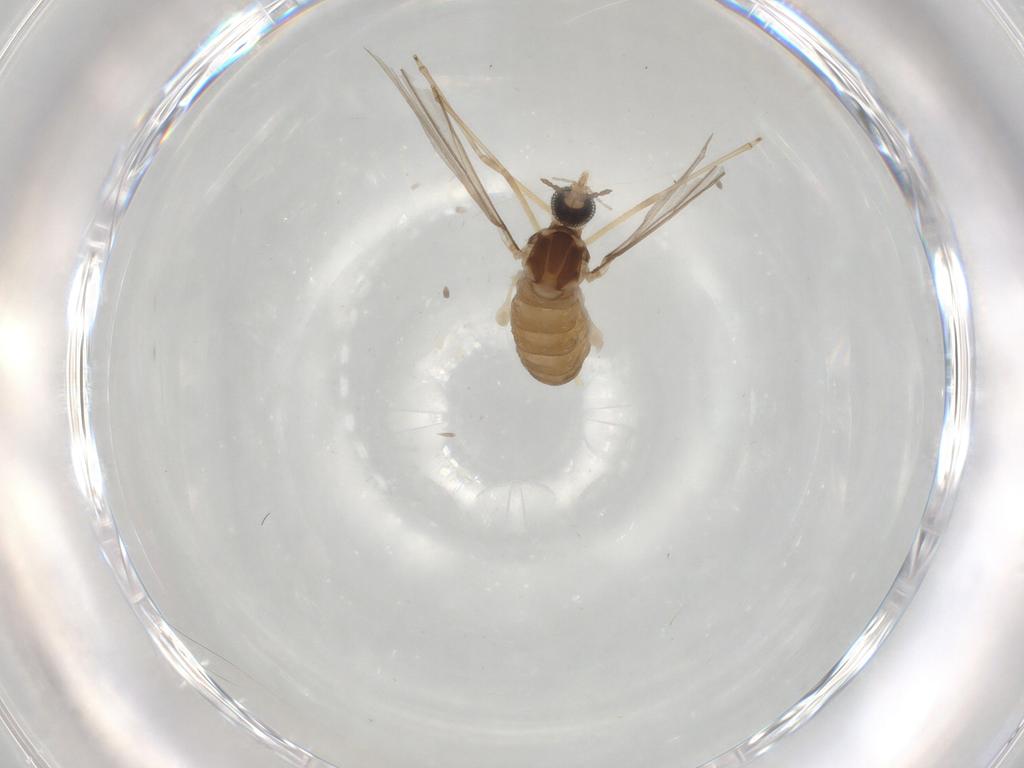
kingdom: Animalia
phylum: Arthropoda
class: Insecta
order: Diptera
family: Cecidomyiidae
